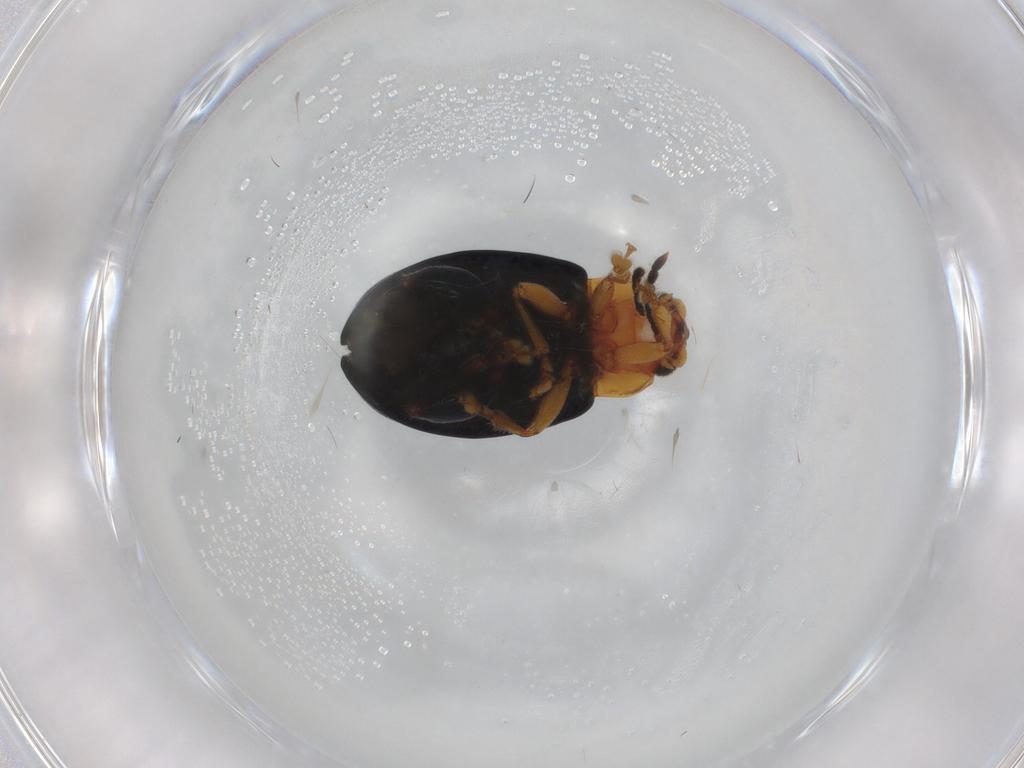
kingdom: Animalia
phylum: Arthropoda
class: Insecta
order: Coleoptera
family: Chrysomelidae
